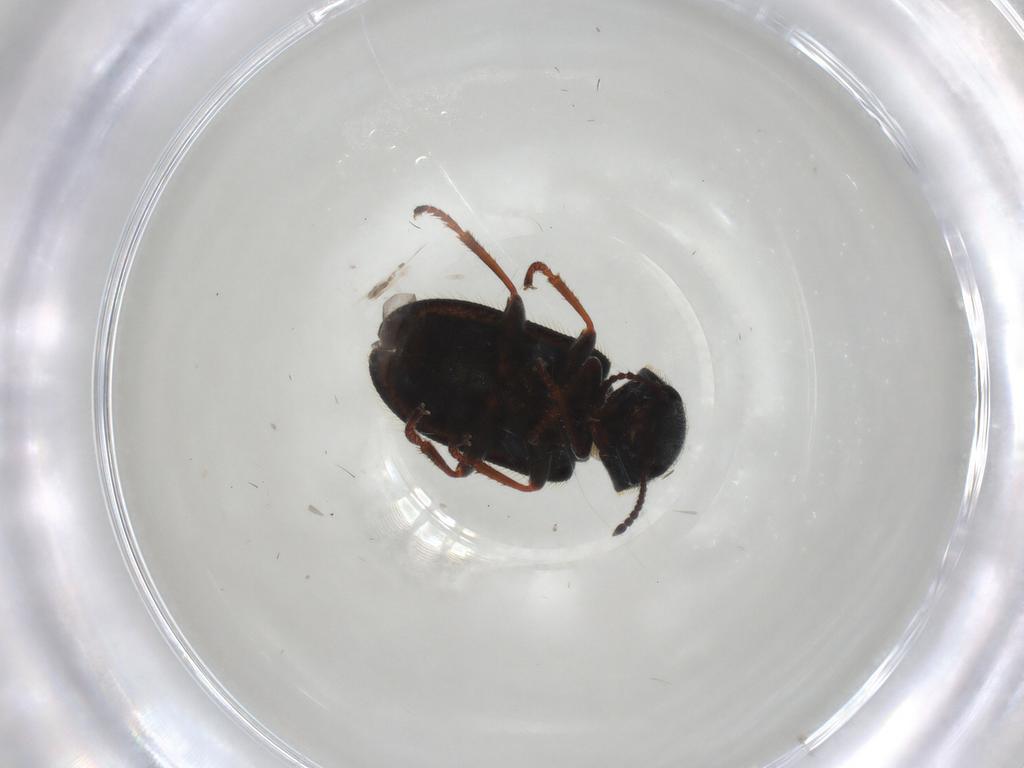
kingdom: Animalia
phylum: Arthropoda
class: Insecta
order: Coleoptera
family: Melyridae
